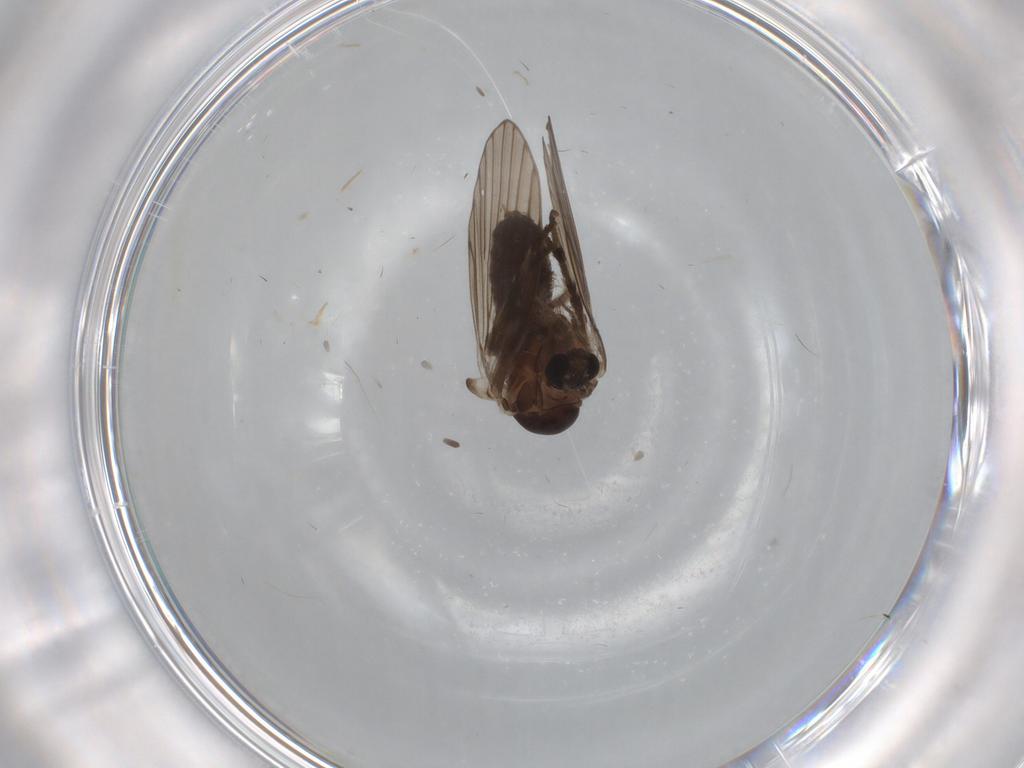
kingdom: Animalia
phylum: Arthropoda
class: Insecta
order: Diptera
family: Psychodidae
